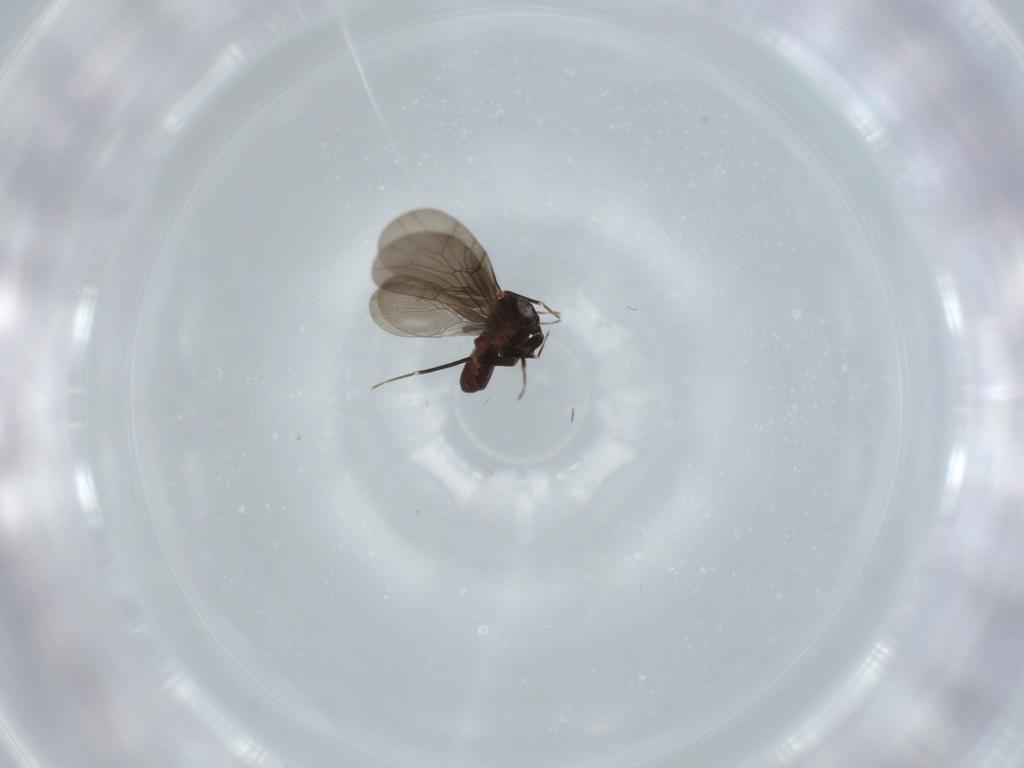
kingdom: Animalia
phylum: Arthropoda
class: Insecta
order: Psocodea
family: Lepidopsocidae
